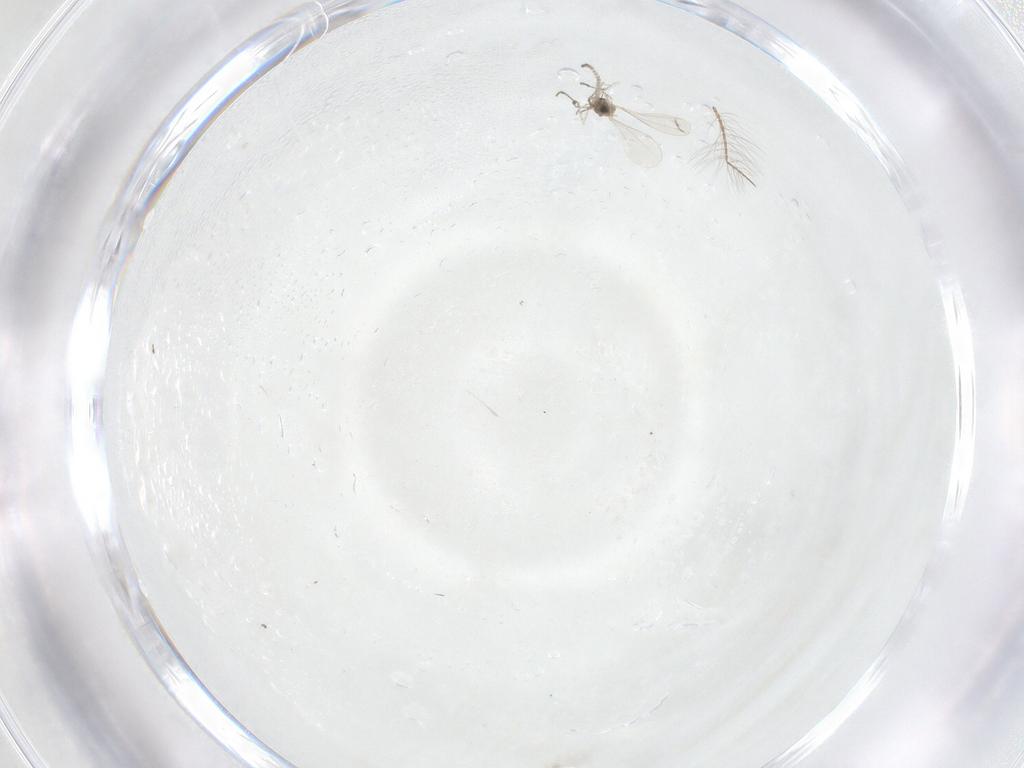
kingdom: Animalia
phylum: Arthropoda
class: Insecta
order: Diptera
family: Cecidomyiidae
